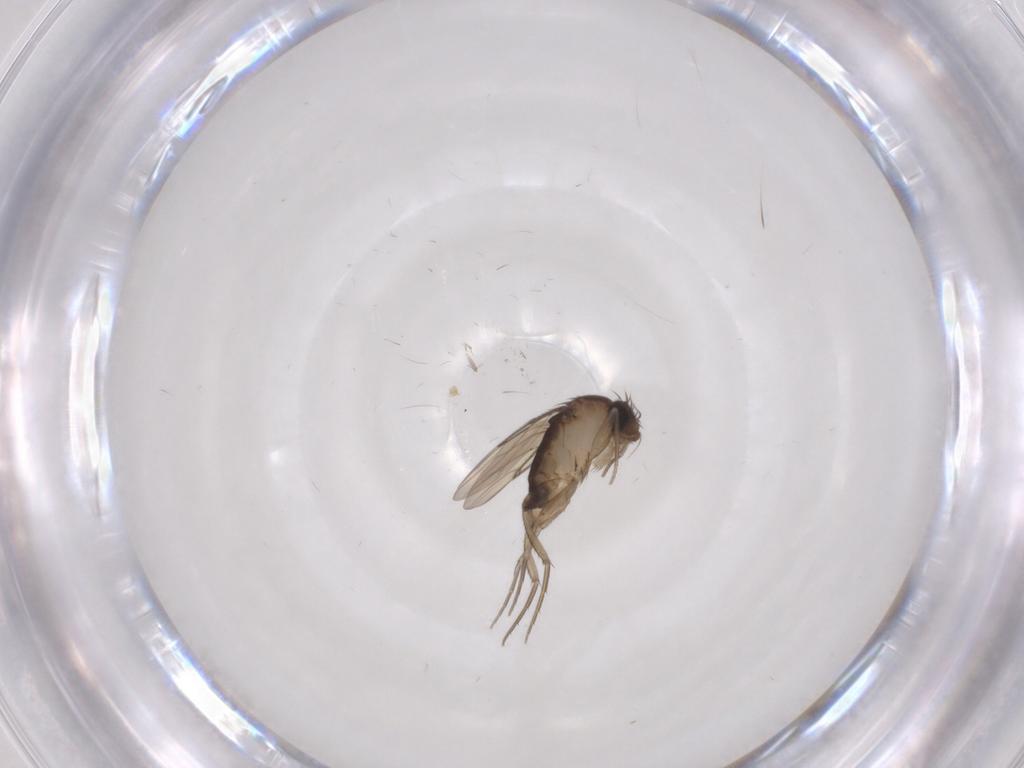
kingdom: Animalia
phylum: Arthropoda
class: Insecta
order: Diptera
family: Phoridae
